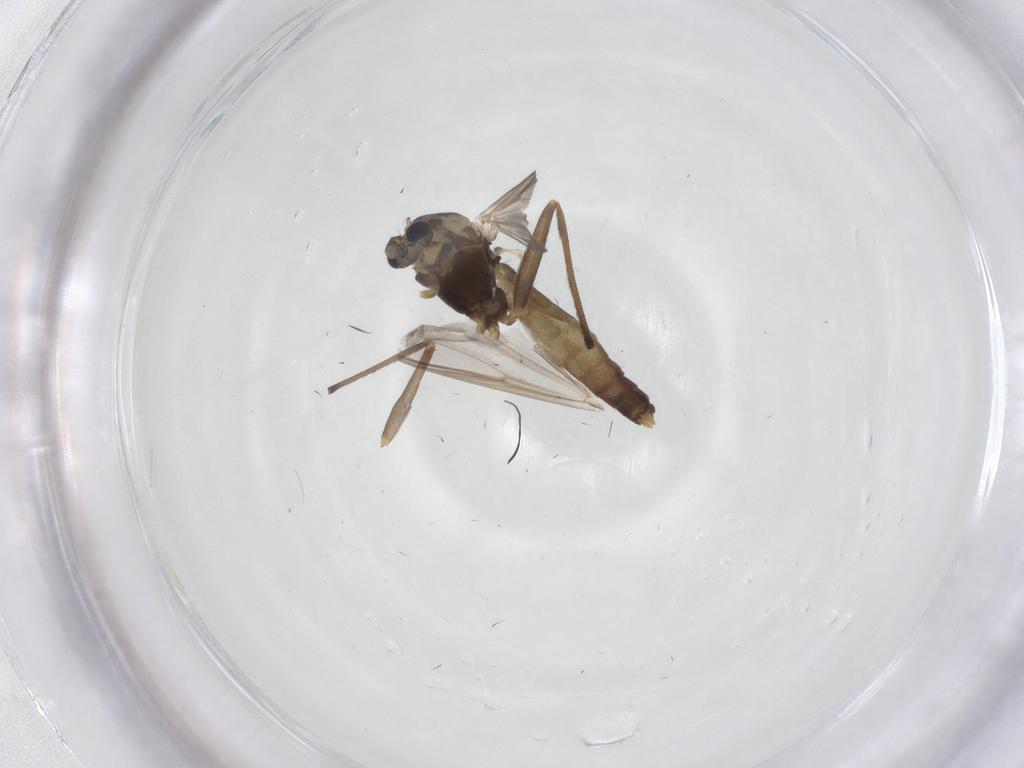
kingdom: Animalia
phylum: Arthropoda
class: Insecta
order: Diptera
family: Chironomidae
